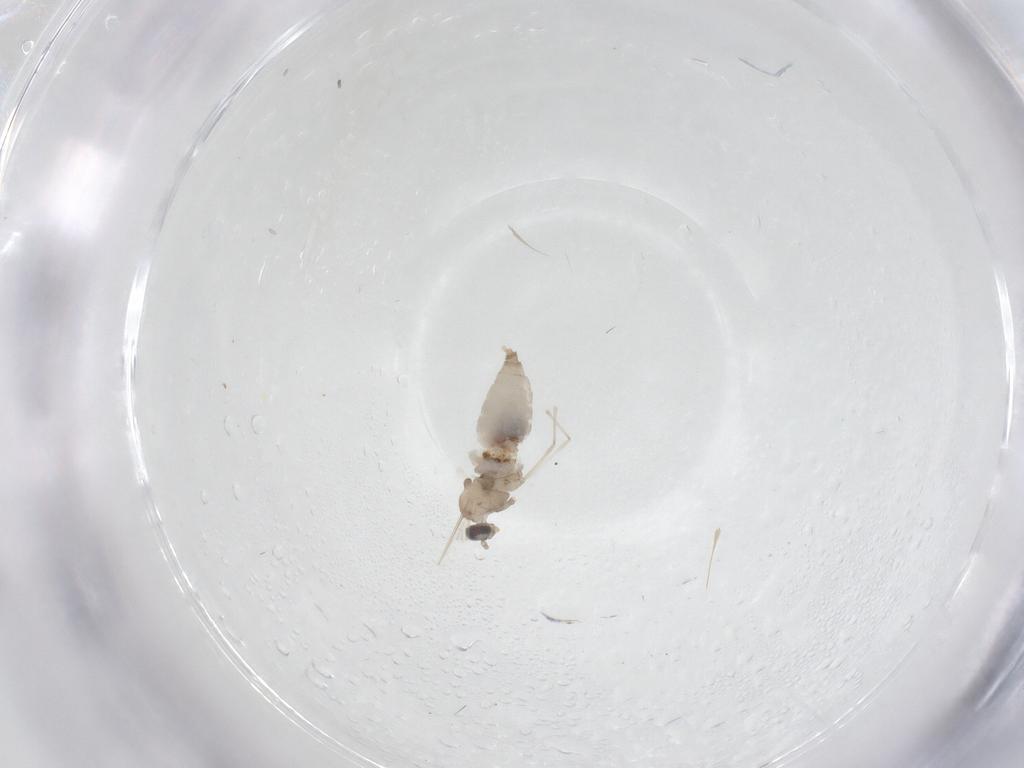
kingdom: Animalia
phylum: Arthropoda
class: Insecta
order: Diptera
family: Cecidomyiidae
